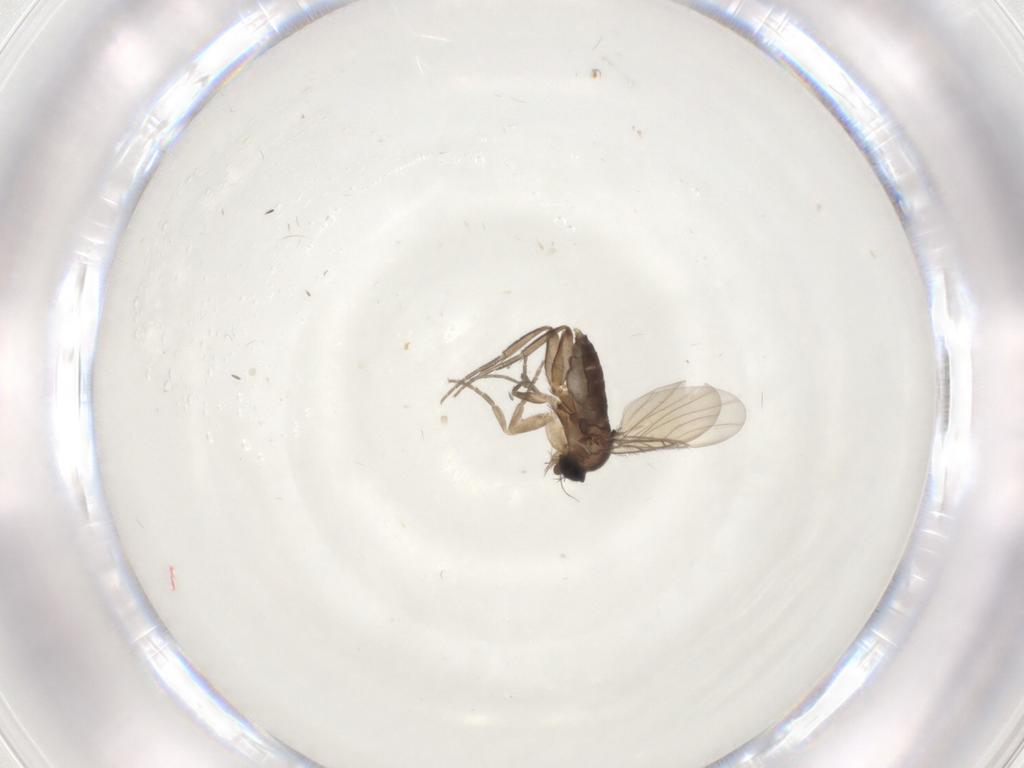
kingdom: Animalia
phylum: Arthropoda
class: Insecta
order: Diptera
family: Phoridae
